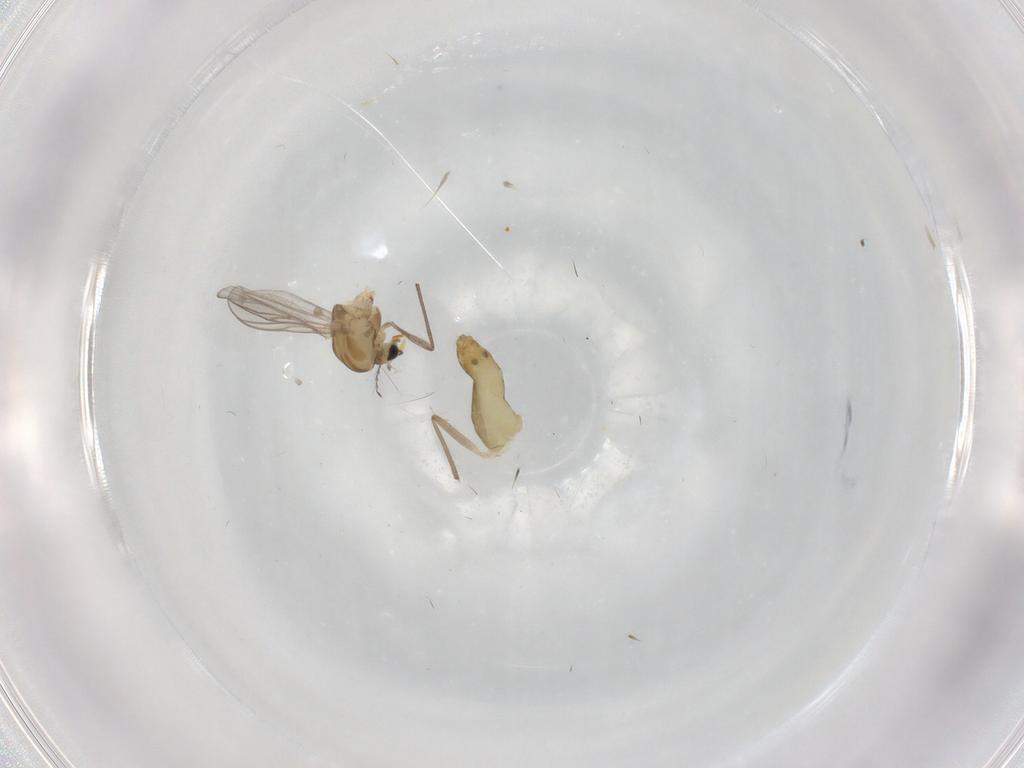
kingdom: Animalia
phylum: Arthropoda
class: Insecta
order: Diptera
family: Chironomidae
